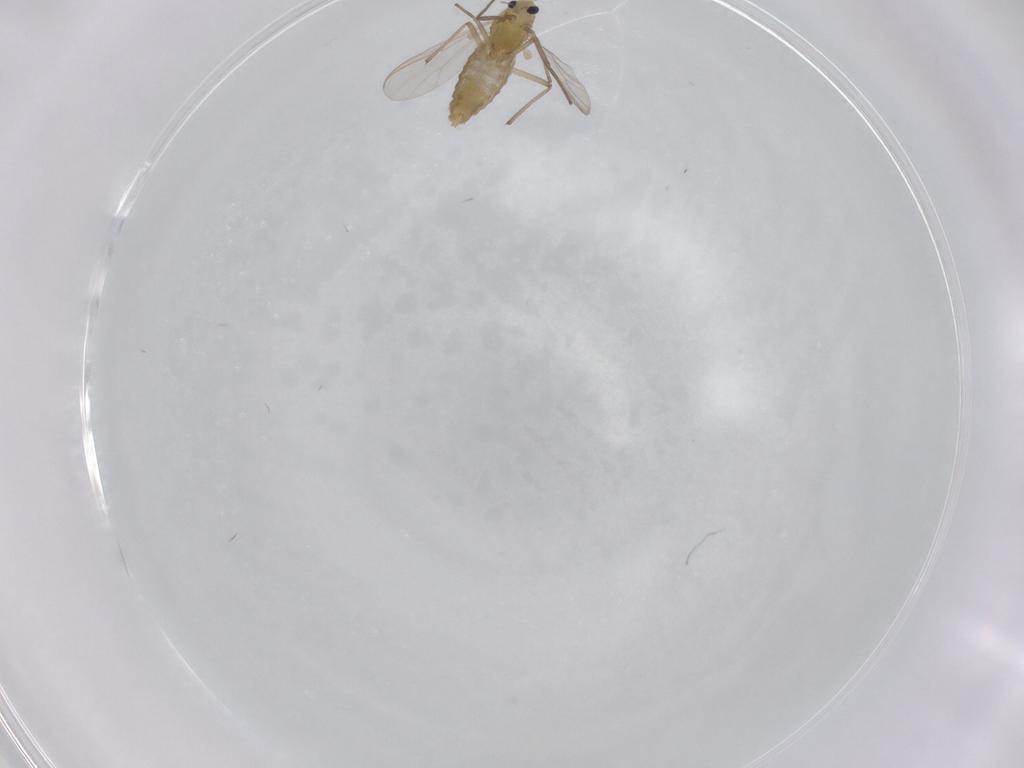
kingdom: Animalia
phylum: Arthropoda
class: Insecta
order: Diptera
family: Chironomidae
